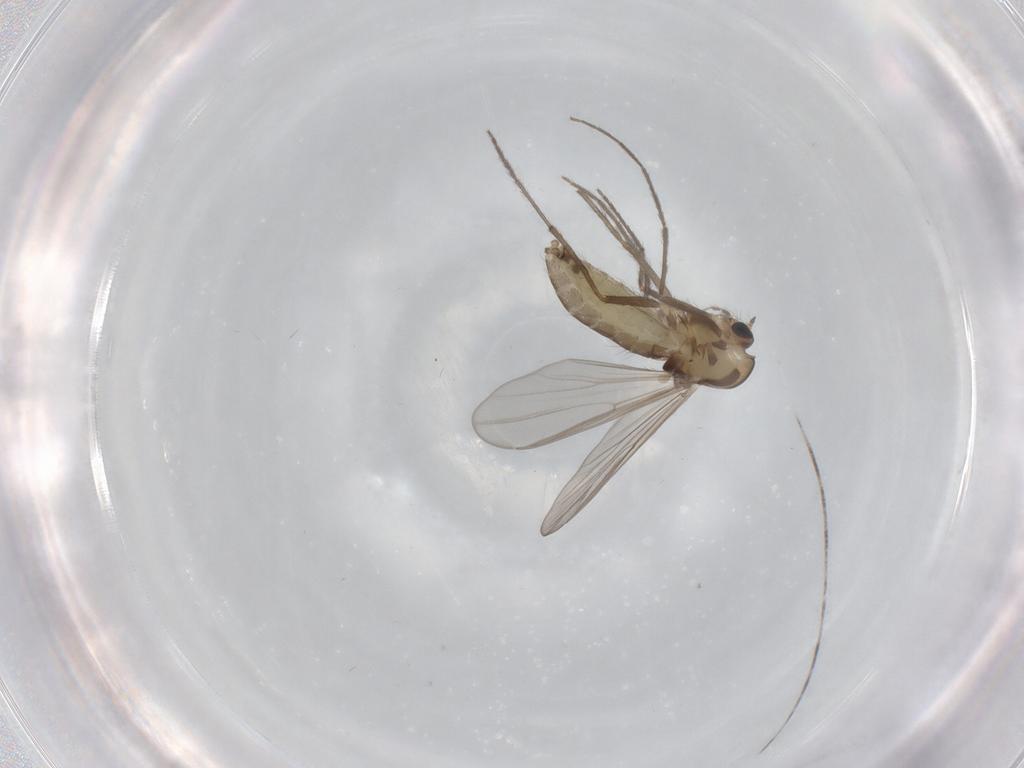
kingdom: Animalia
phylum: Arthropoda
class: Insecta
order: Diptera
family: Chironomidae
